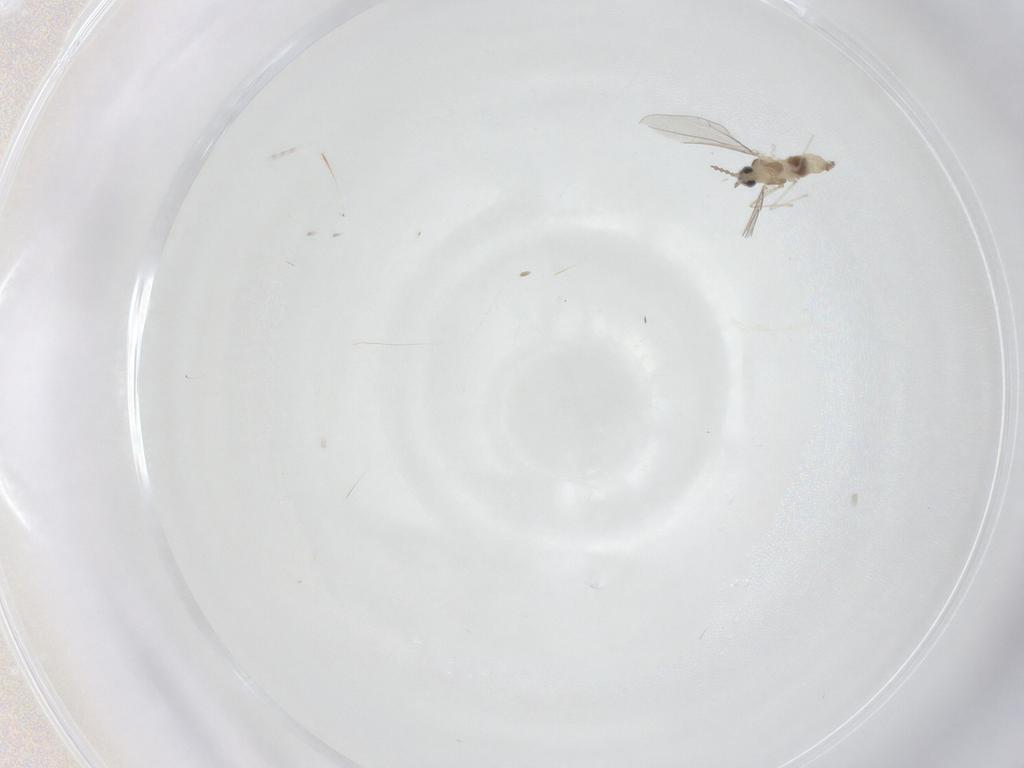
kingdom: Animalia
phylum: Arthropoda
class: Insecta
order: Diptera
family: Cecidomyiidae
